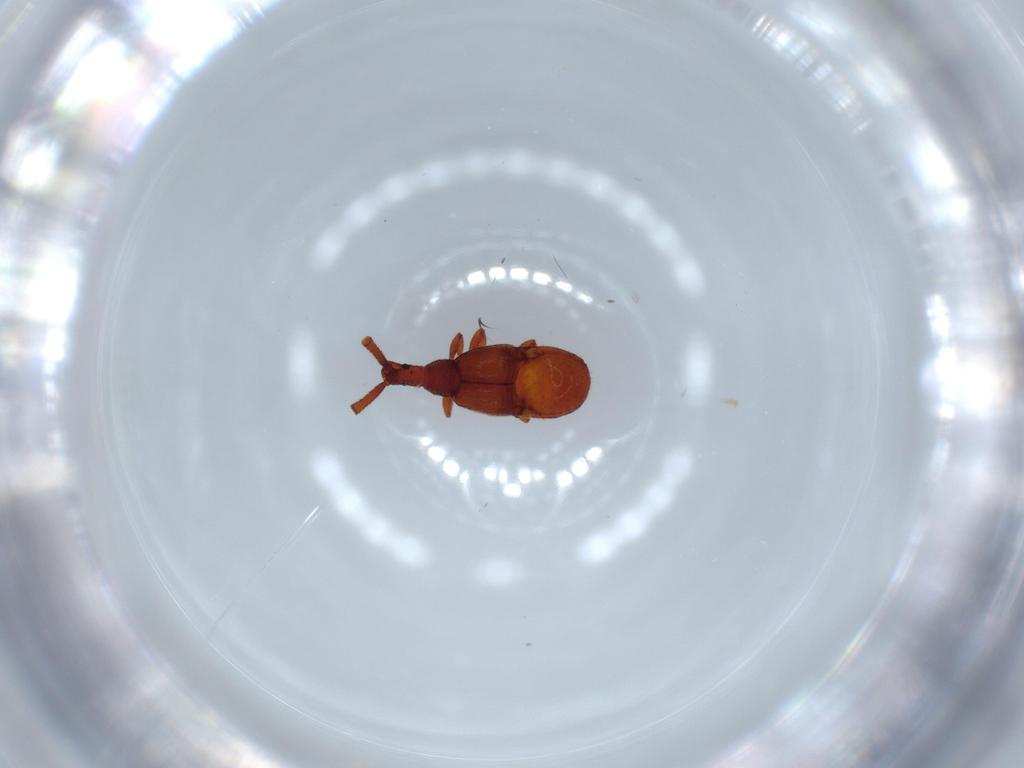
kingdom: Animalia
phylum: Arthropoda
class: Insecta
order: Coleoptera
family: Staphylinidae
